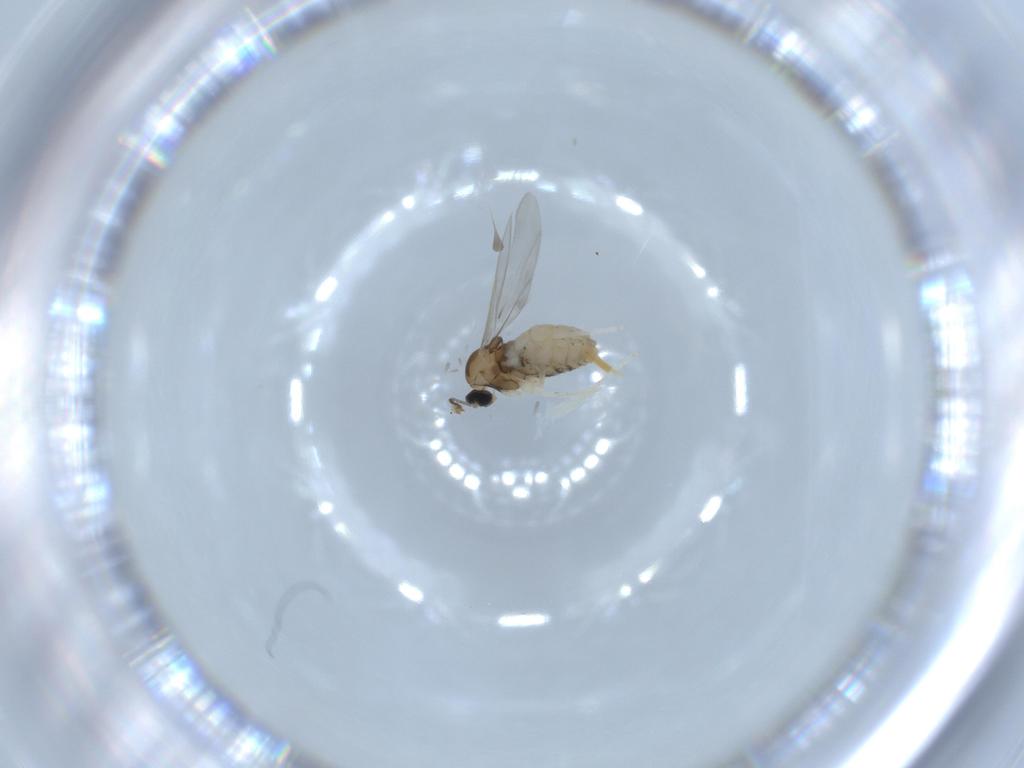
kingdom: Animalia
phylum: Arthropoda
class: Insecta
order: Diptera
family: Cecidomyiidae
